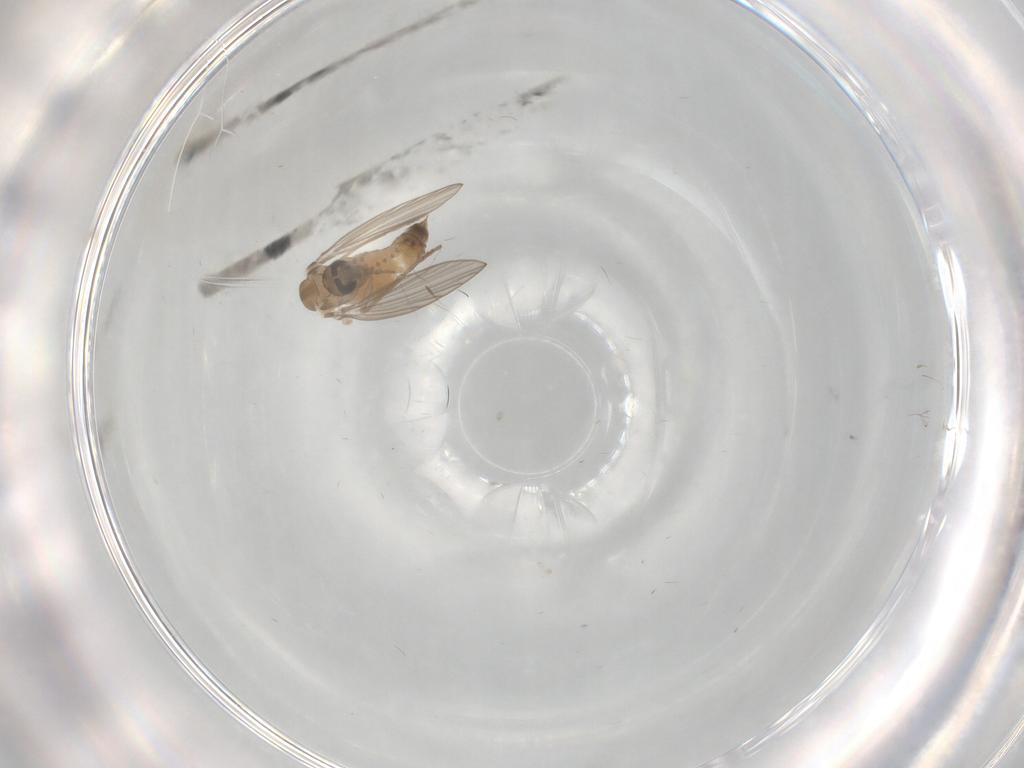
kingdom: Animalia
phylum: Arthropoda
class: Insecta
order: Diptera
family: Psychodidae
